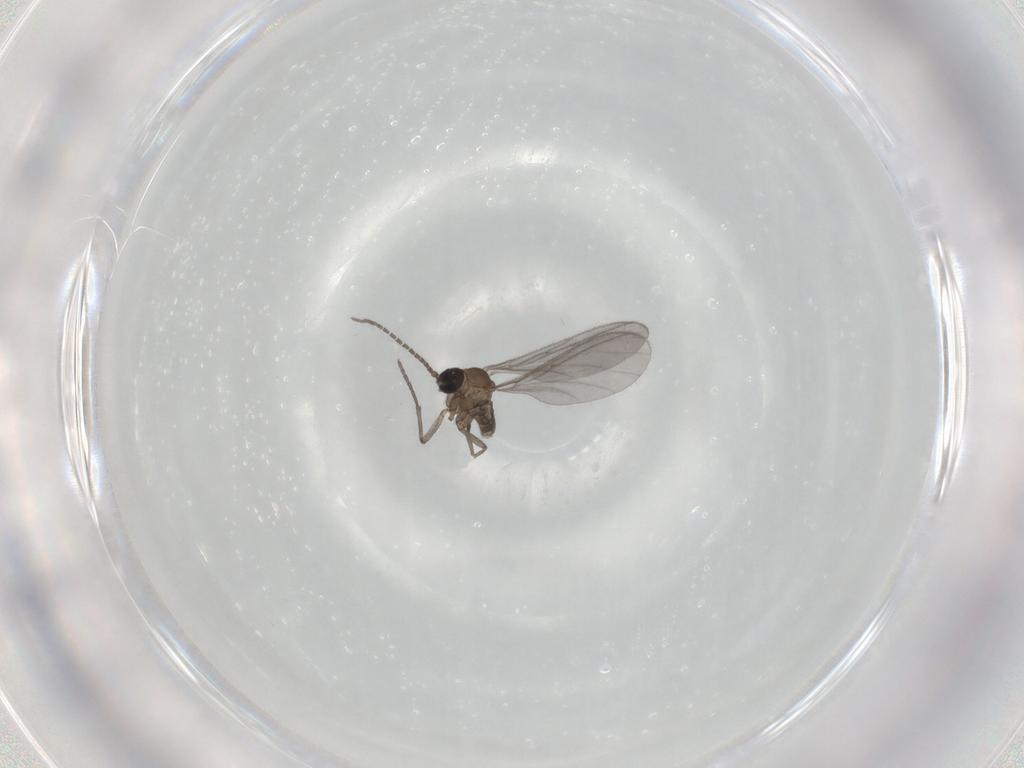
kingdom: Animalia
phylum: Arthropoda
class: Insecta
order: Diptera
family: Sciaridae
